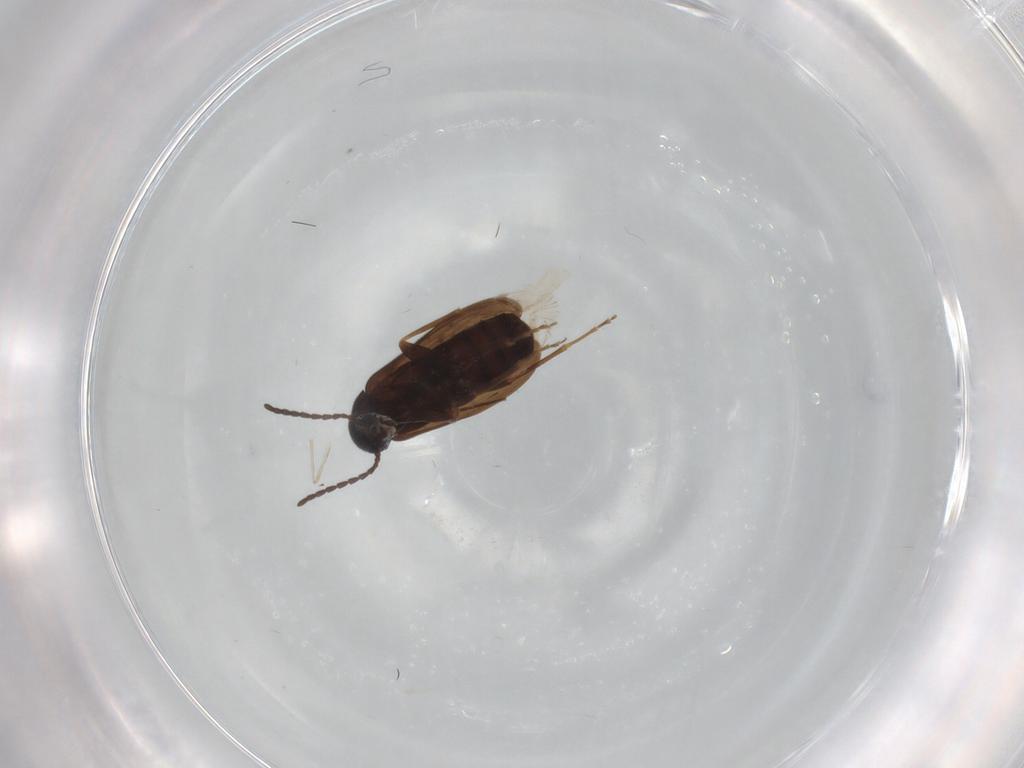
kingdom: Animalia
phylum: Arthropoda
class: Insecta
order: Coleoptera
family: Scraptiidae
